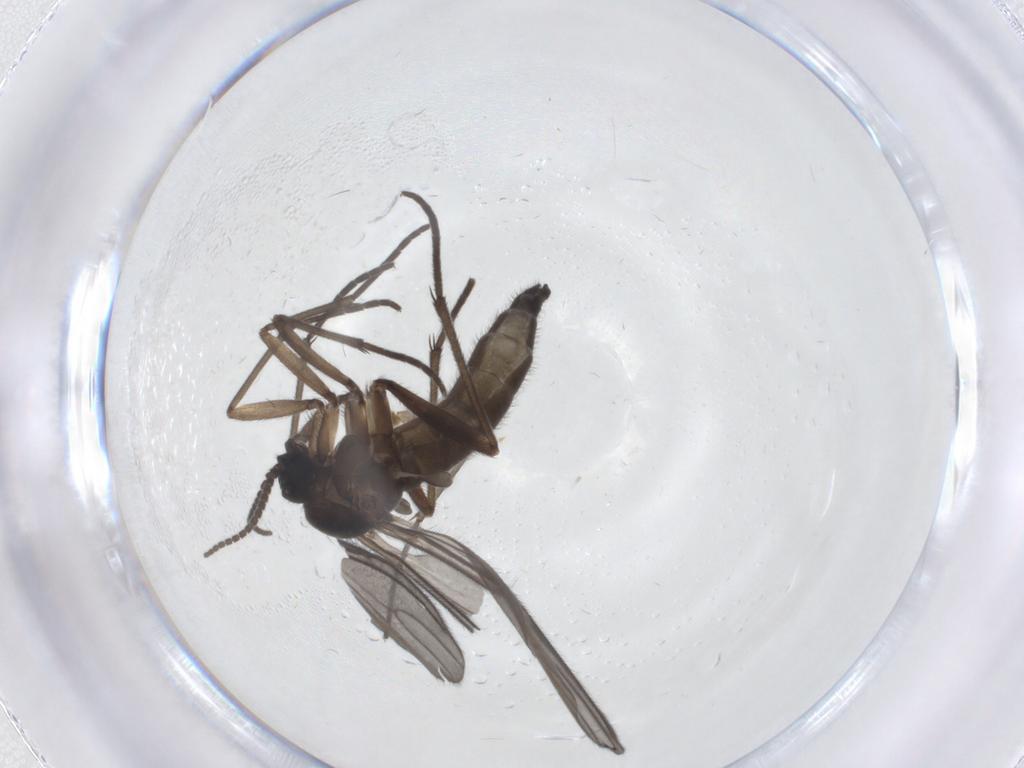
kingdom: Animalia
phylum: Arthropoda
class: Insecta
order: Diptera
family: Sciaridae
